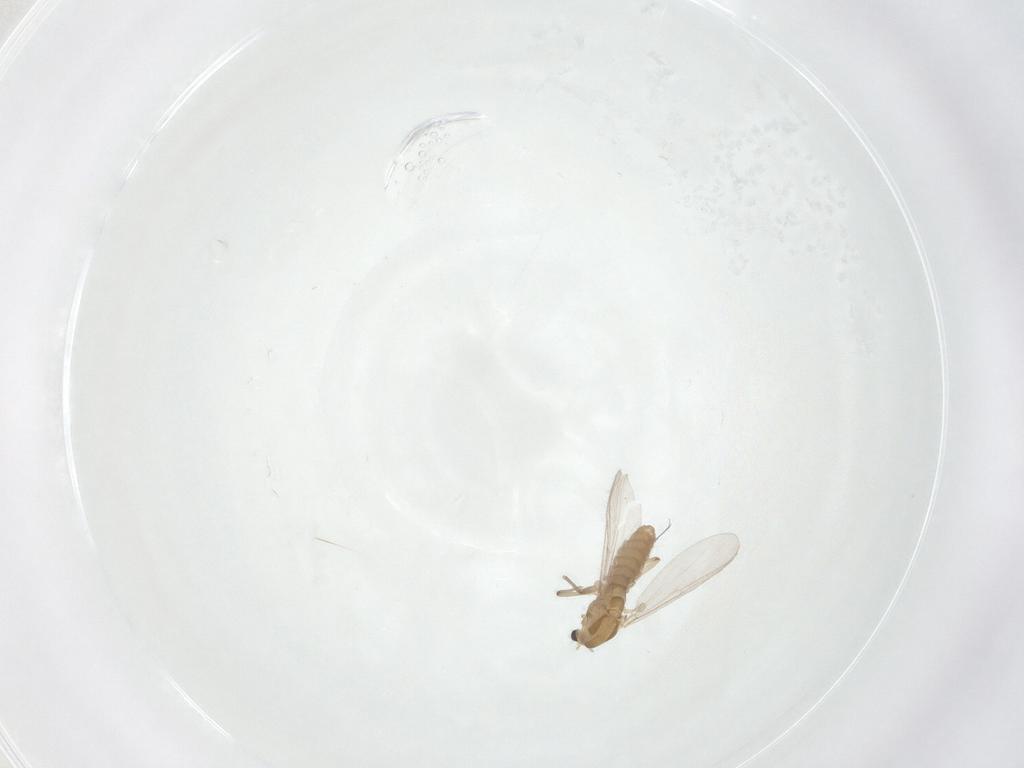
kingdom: Animalia
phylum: Arthropoda
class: Insecta
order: Diptera
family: Chironomidae
